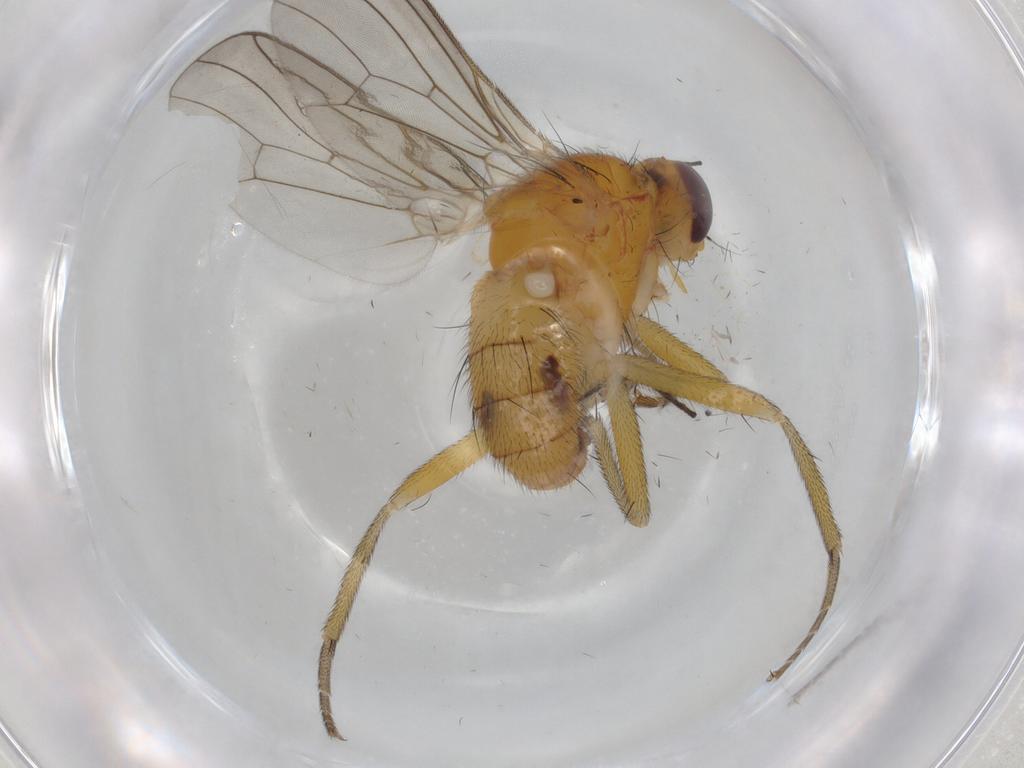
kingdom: Animalia
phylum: Arthropoda
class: Insecta
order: Diptera
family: Scathophagidae
